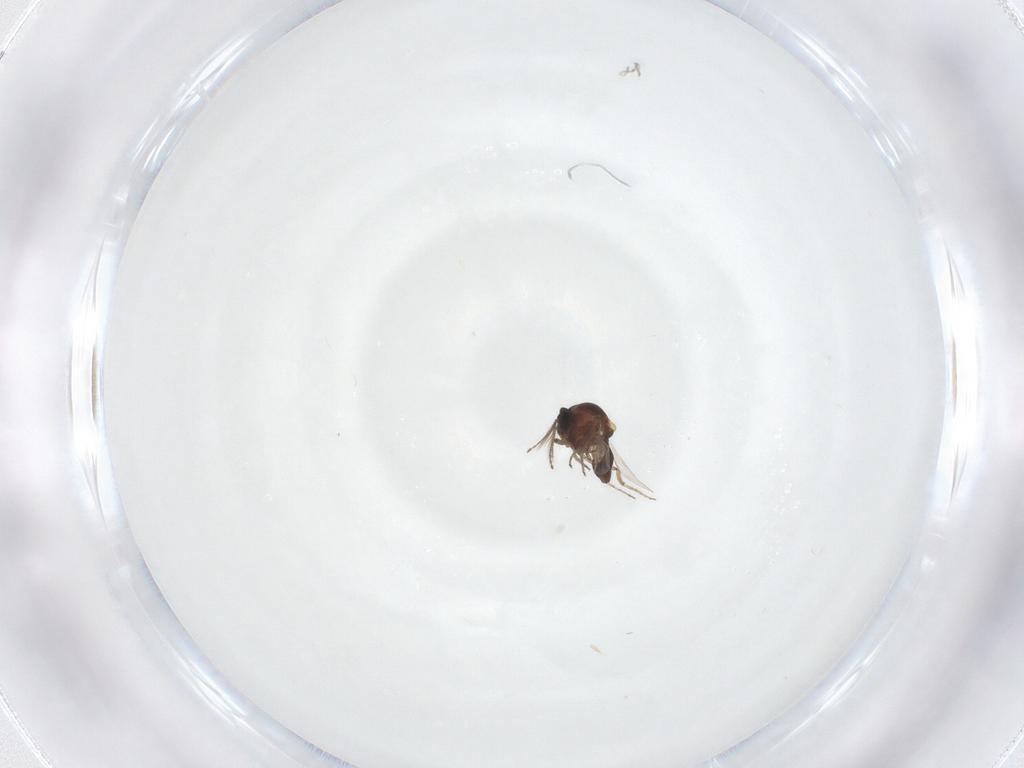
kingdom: Animalia
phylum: Arthropoda
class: Insecta
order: Diptera
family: Ceratopogonidae
